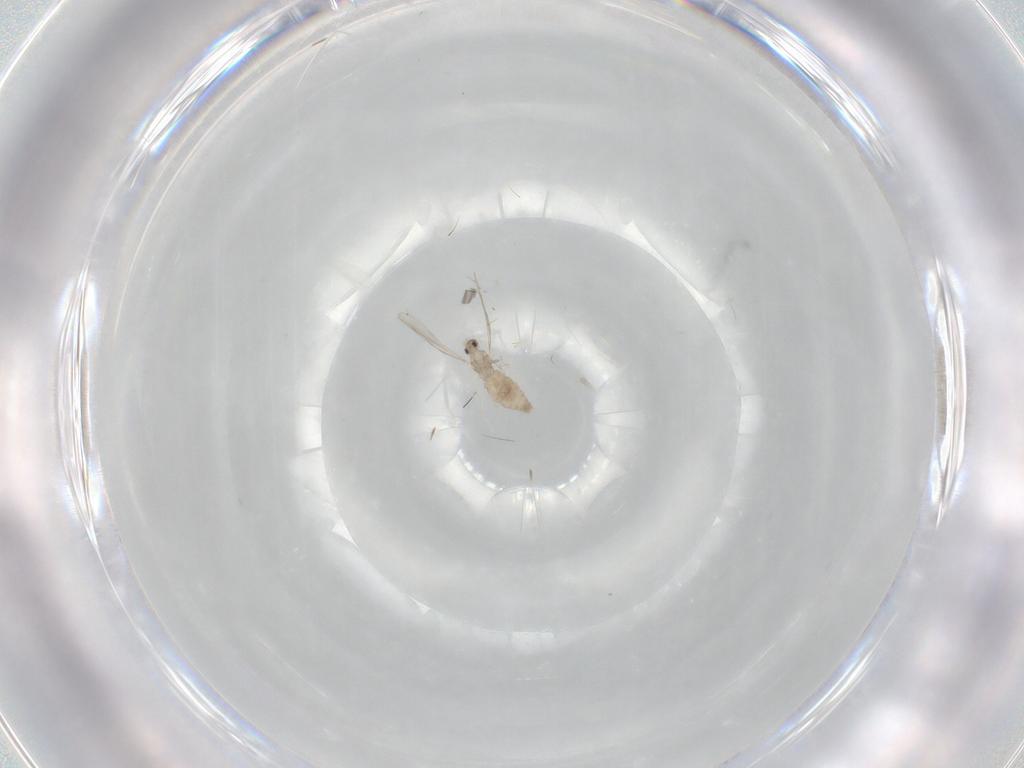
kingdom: Animalia
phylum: Arthropoda
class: Insecta
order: Diptera
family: Cecidomyiidae
